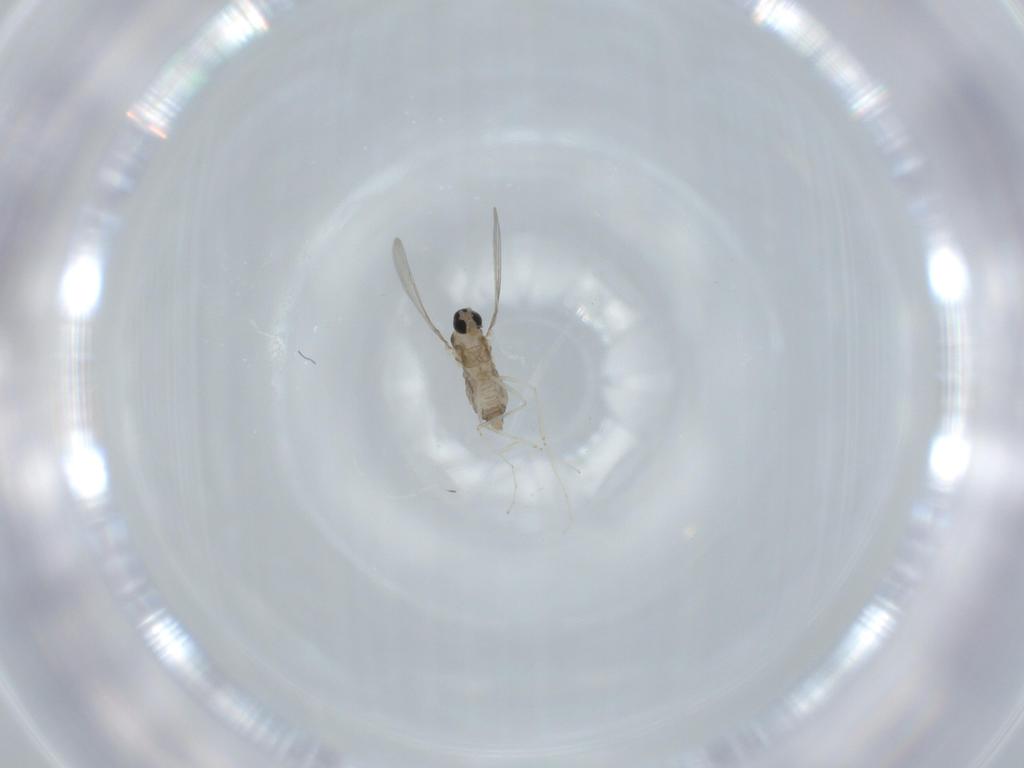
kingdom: Animalia
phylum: Arthropoda
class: Insecta
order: Diptera
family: Cecidomyiidae
